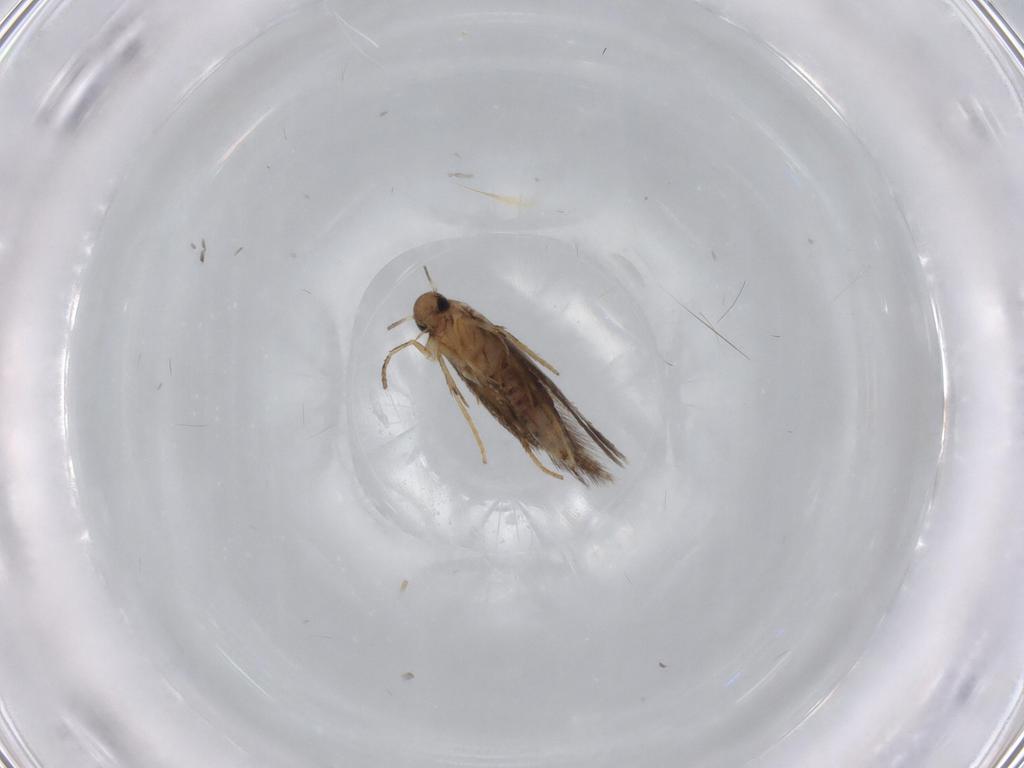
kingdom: Animalia
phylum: Arthropoda
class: Insecta
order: Lepidoptera
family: Heliozelidae
